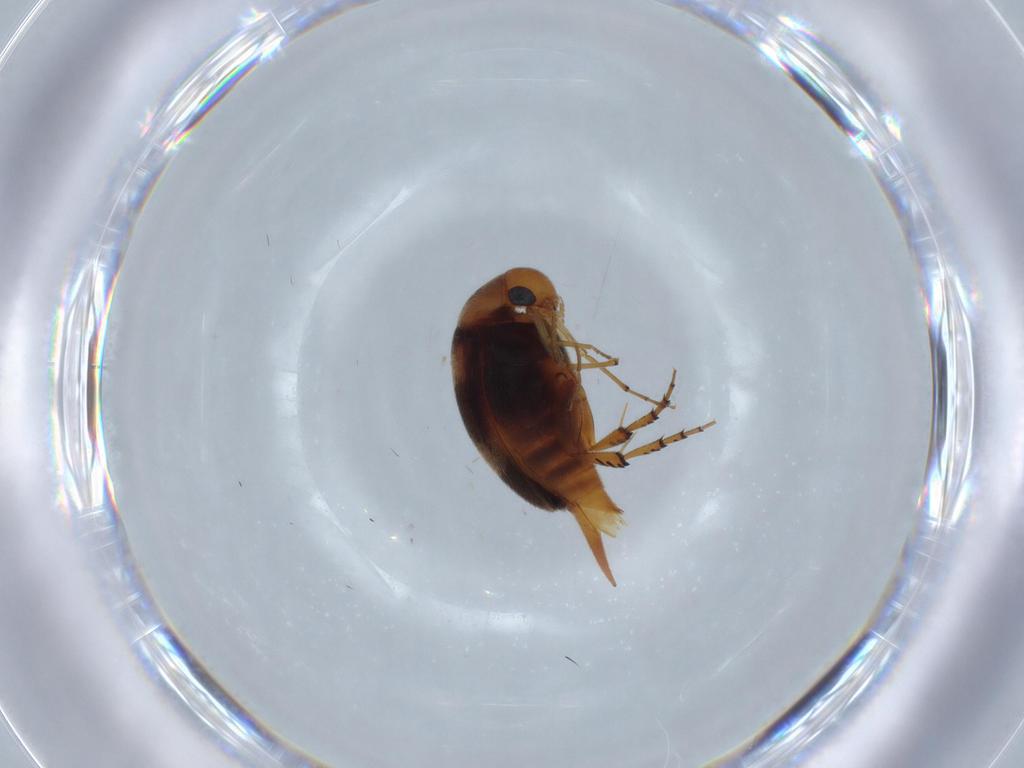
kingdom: Animalia
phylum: Arthropoda
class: Insecta
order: Coleoptera
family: Mordellidae
